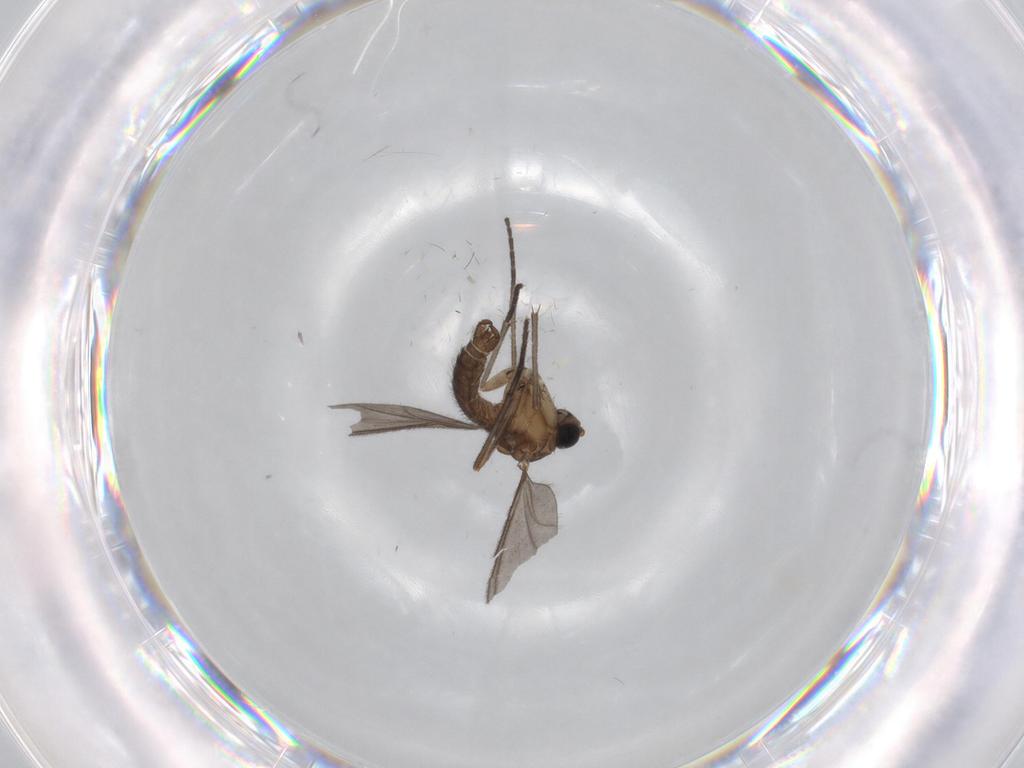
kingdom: Animalia
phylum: Arthropoda
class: Insecta
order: Diptera
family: Sciaridae
